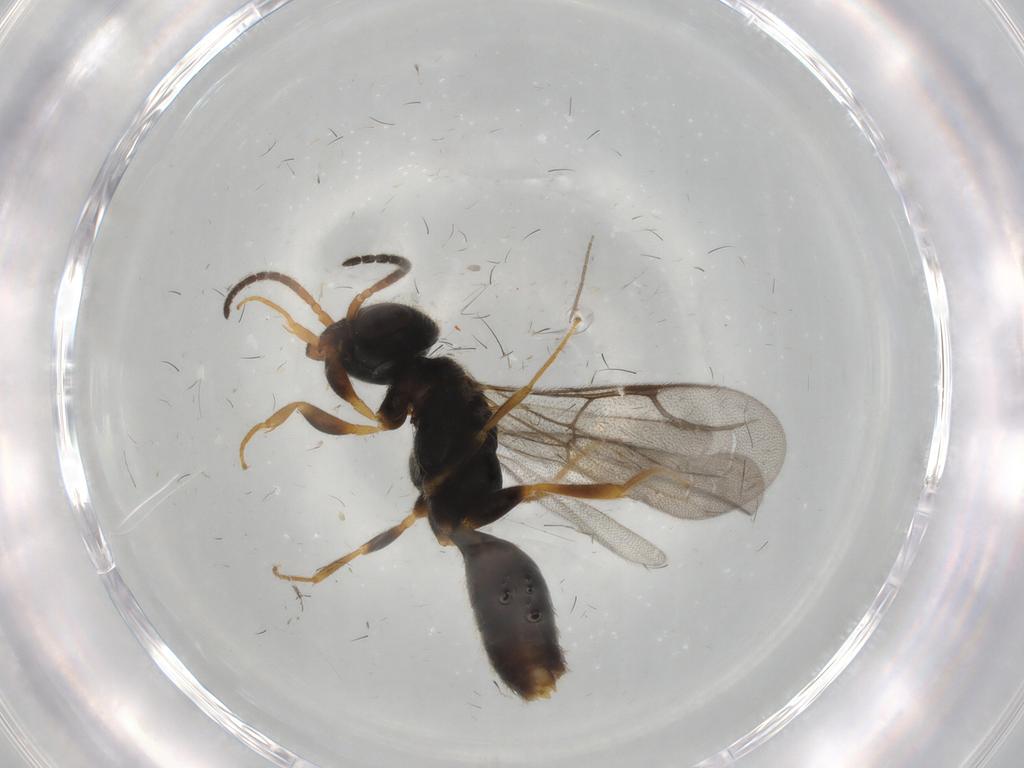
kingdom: Animalia
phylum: Arthropoda
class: Insecta
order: Hymenoptera
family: Bethylidae
